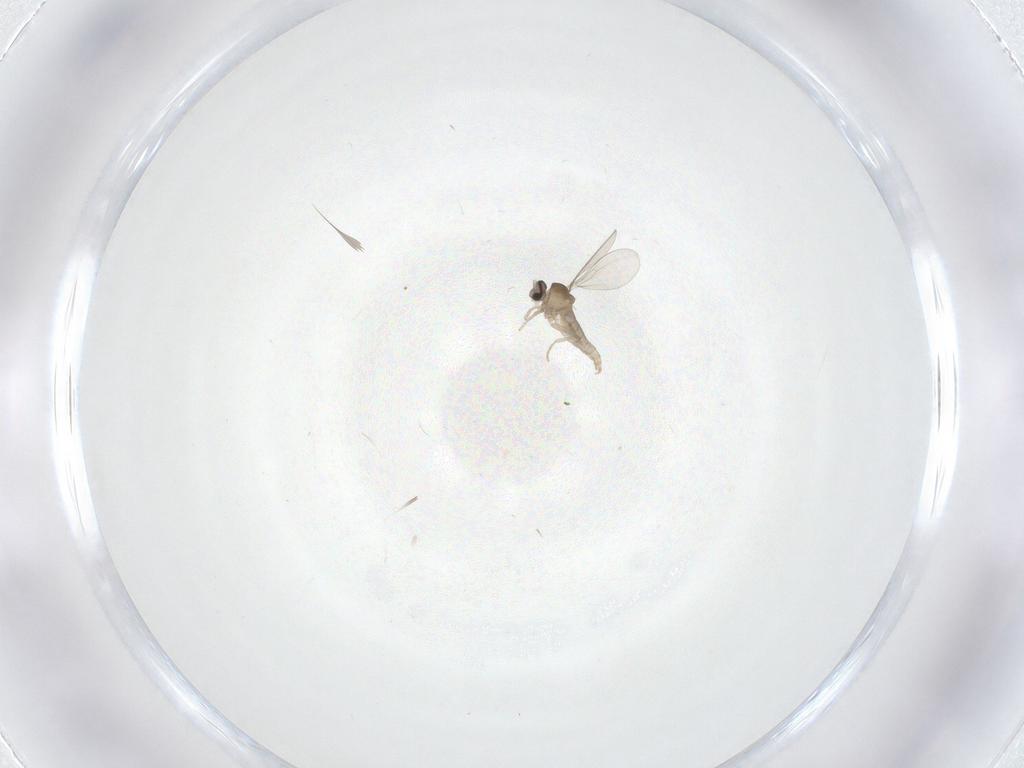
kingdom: Animalia
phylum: Arthropoda
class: Insecta
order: Diptera
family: Cecidomyiidae
